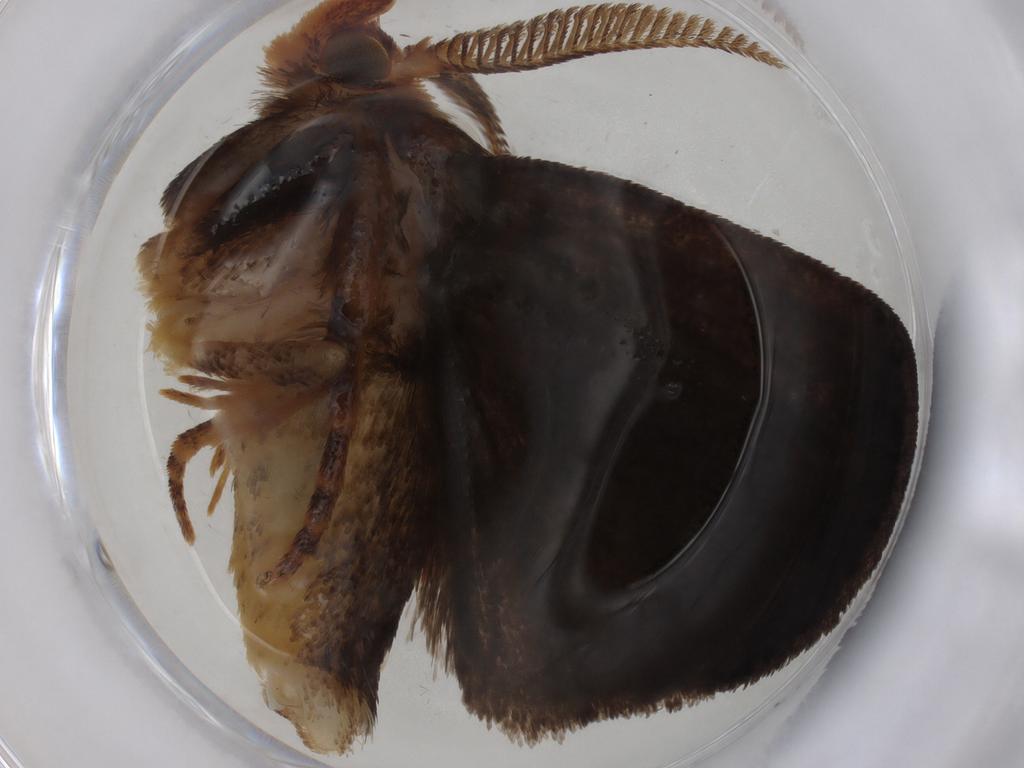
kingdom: Animalia
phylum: Arthropoda
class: Insecta
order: Lepidoptera
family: Limacodidae
